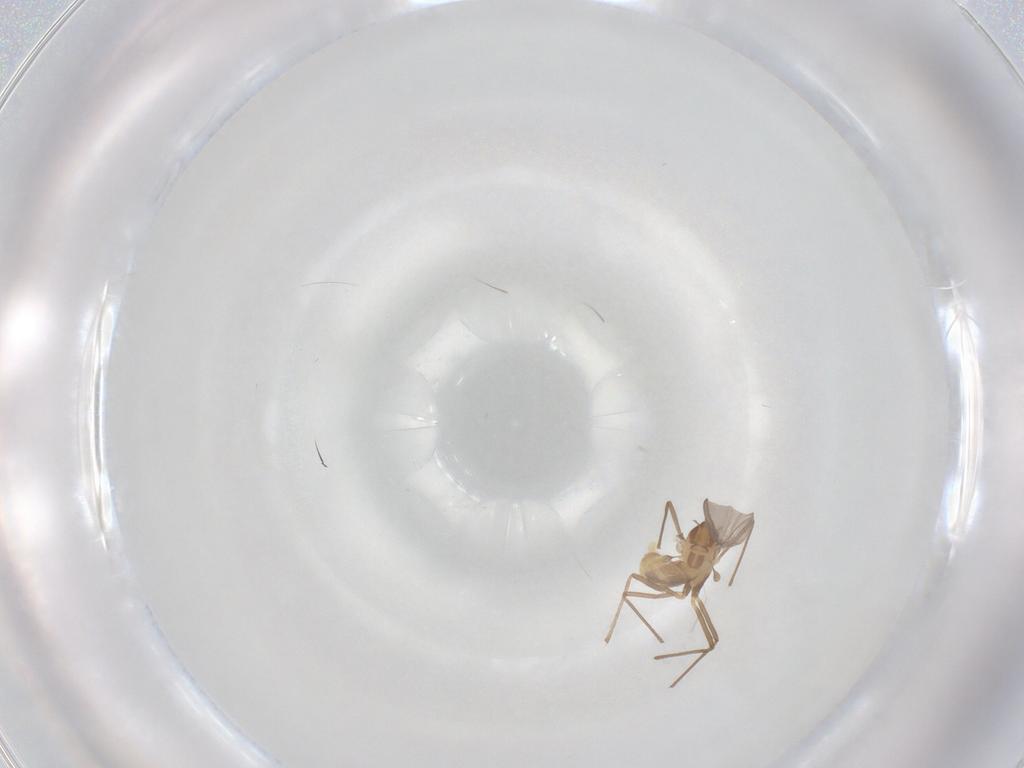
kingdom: Animalia
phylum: Arthropoda
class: Insecta
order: Diptera
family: Chironomidae
